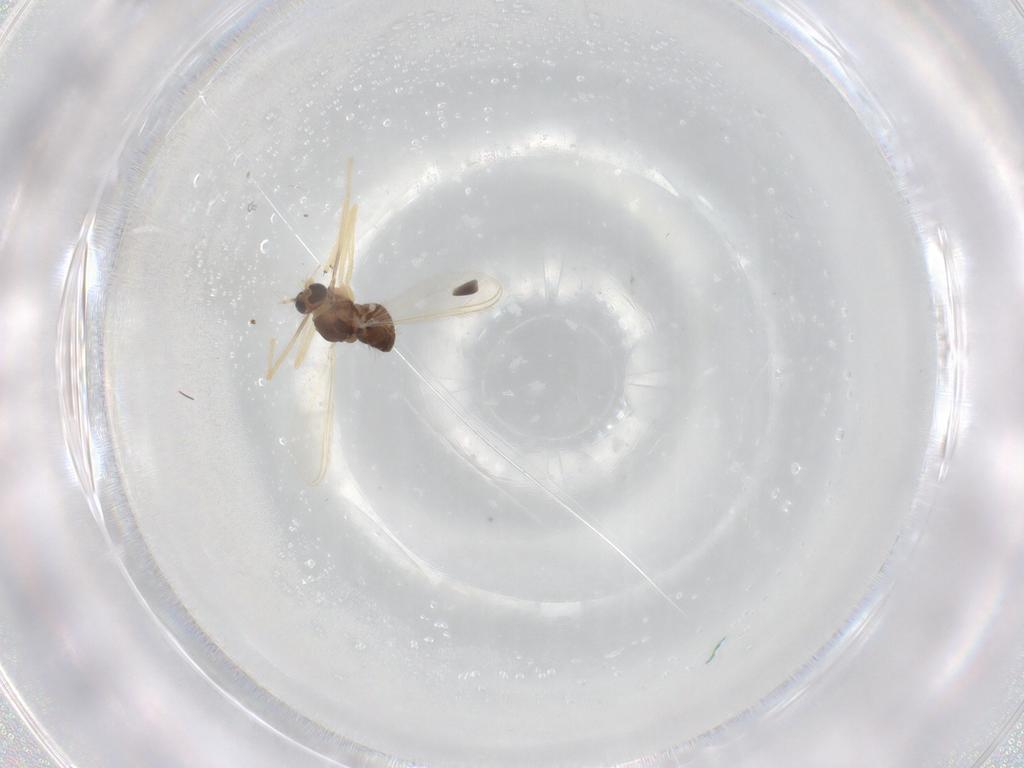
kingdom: Animalia
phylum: Arthropoda
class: Insecta
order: Diptera
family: Chironomidae
